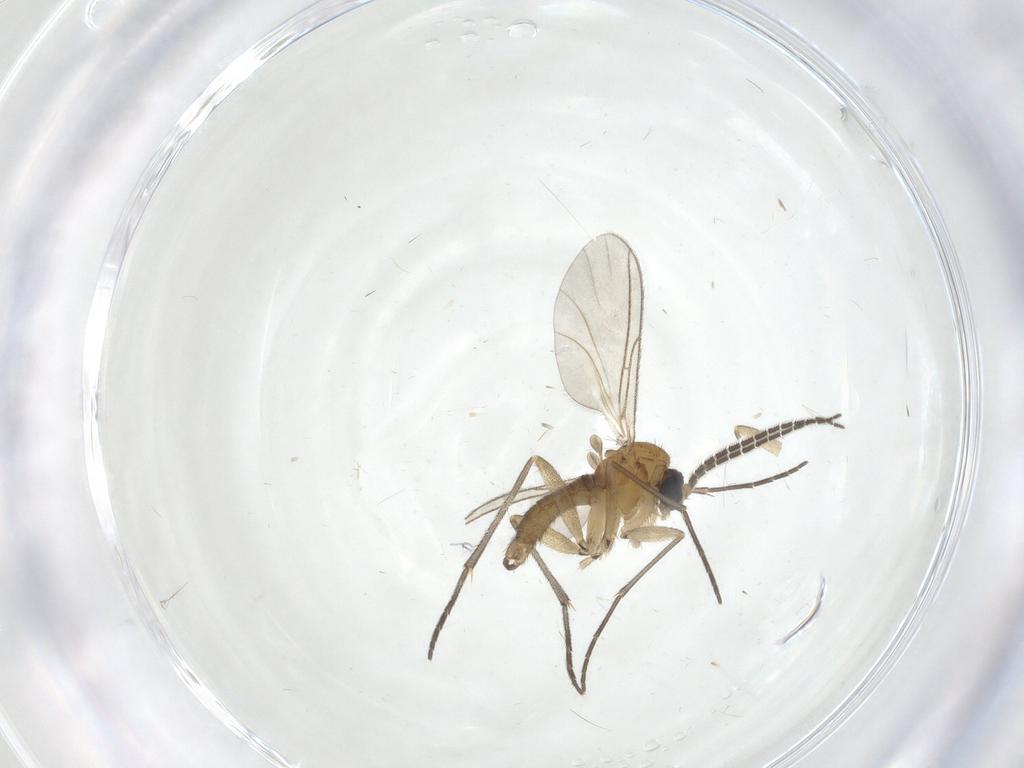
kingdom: Animalia
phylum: Arthropoda
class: Insecta
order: Diptera
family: Sciaridae
